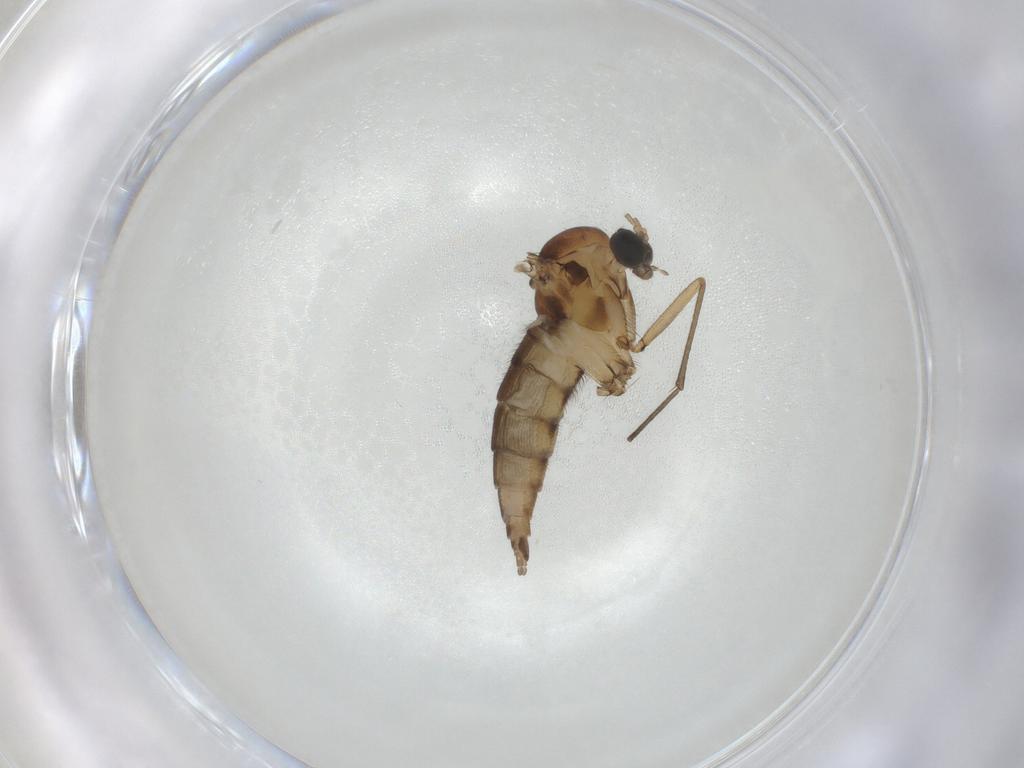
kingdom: Animalia
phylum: Arthropoda
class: Insecta
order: Diptera
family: Sciaridae
